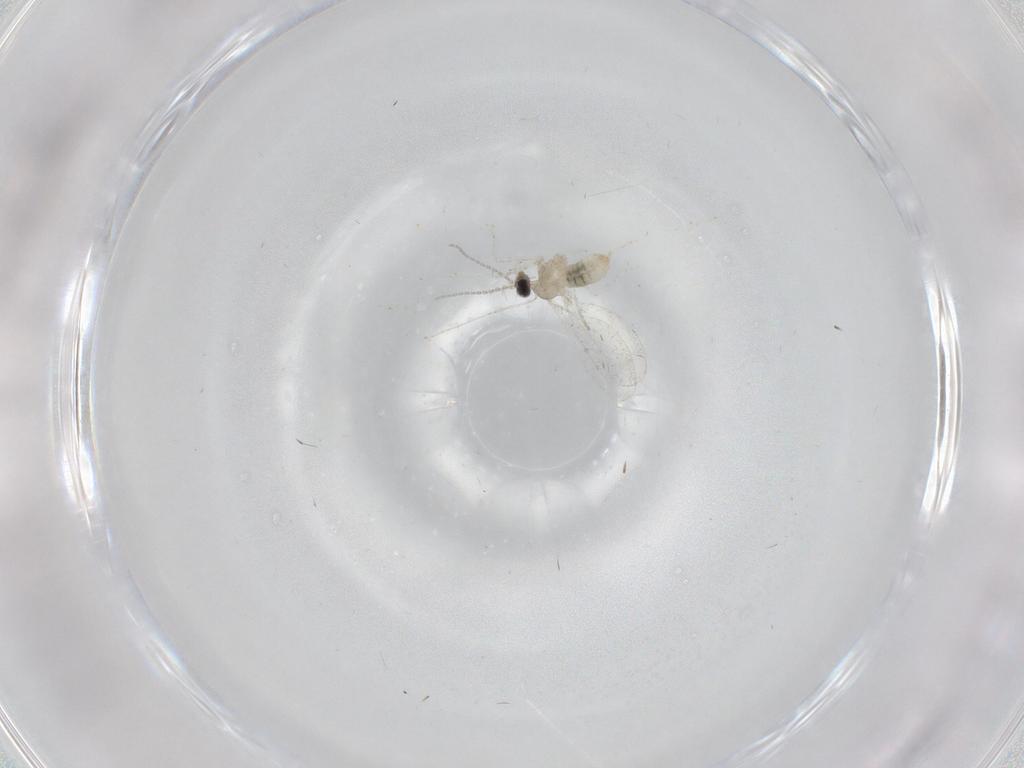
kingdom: Animalia
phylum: Arthropoda
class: Insecta
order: Diptera
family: Cecidomyiidae
